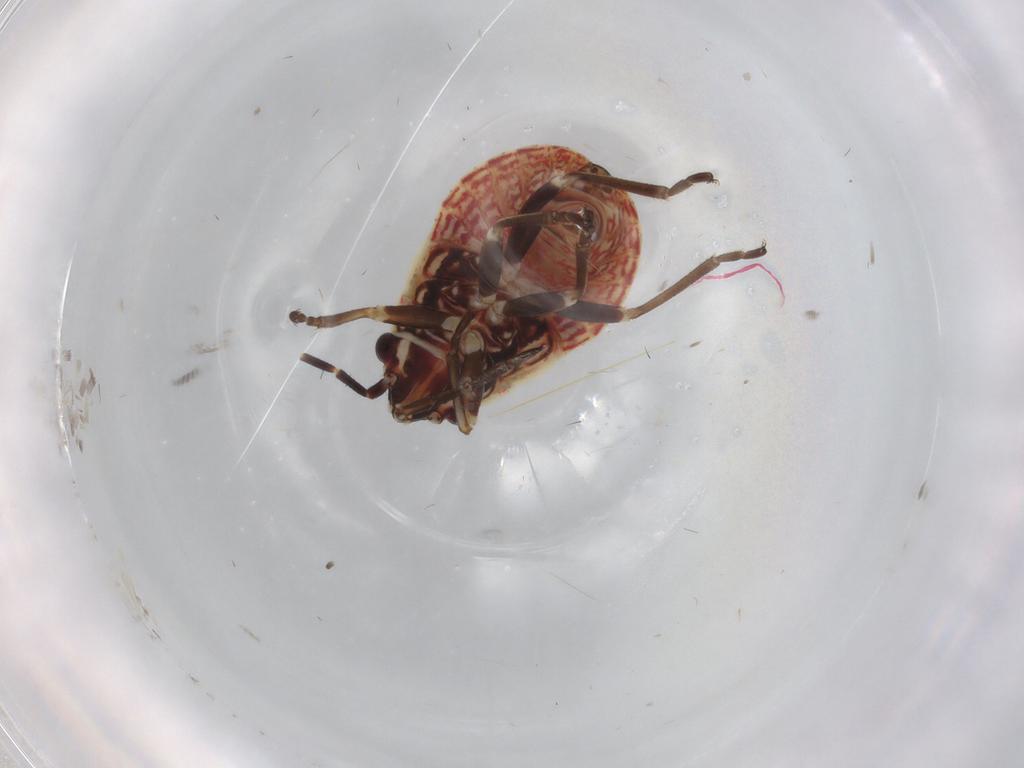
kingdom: Animalia
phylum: Arthropoda
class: Insecta
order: Hemiptera
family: Lygaeidae
